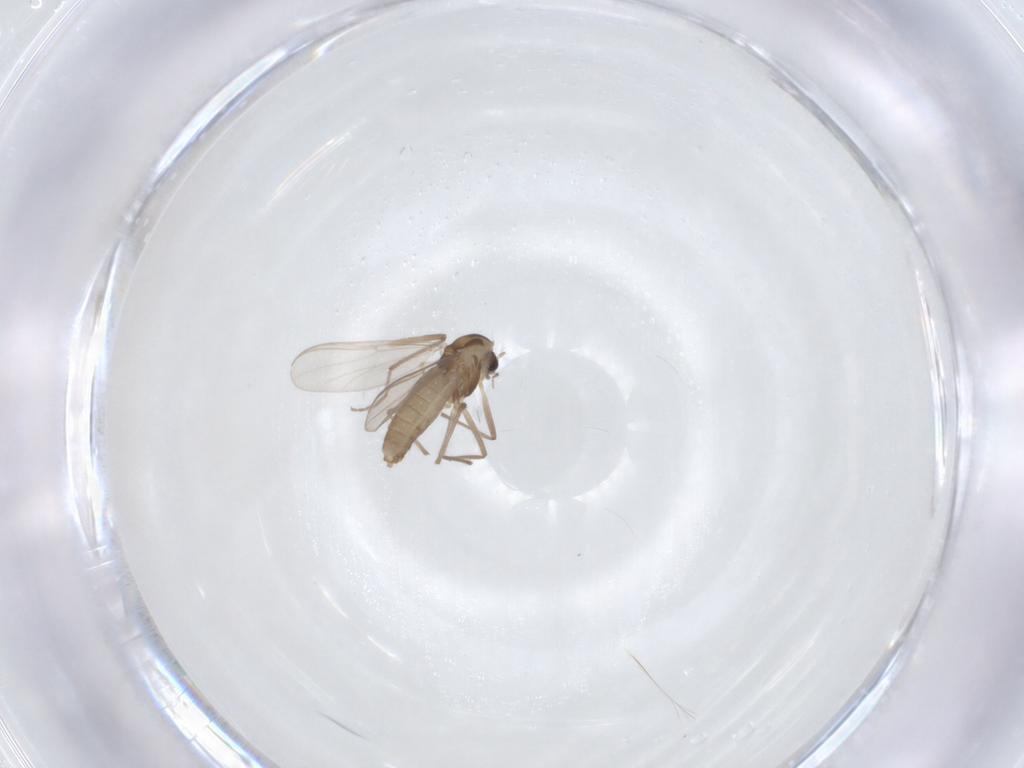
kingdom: Animalia
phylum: Arthropoda
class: Insecta
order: Diptera
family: Chironomidae
